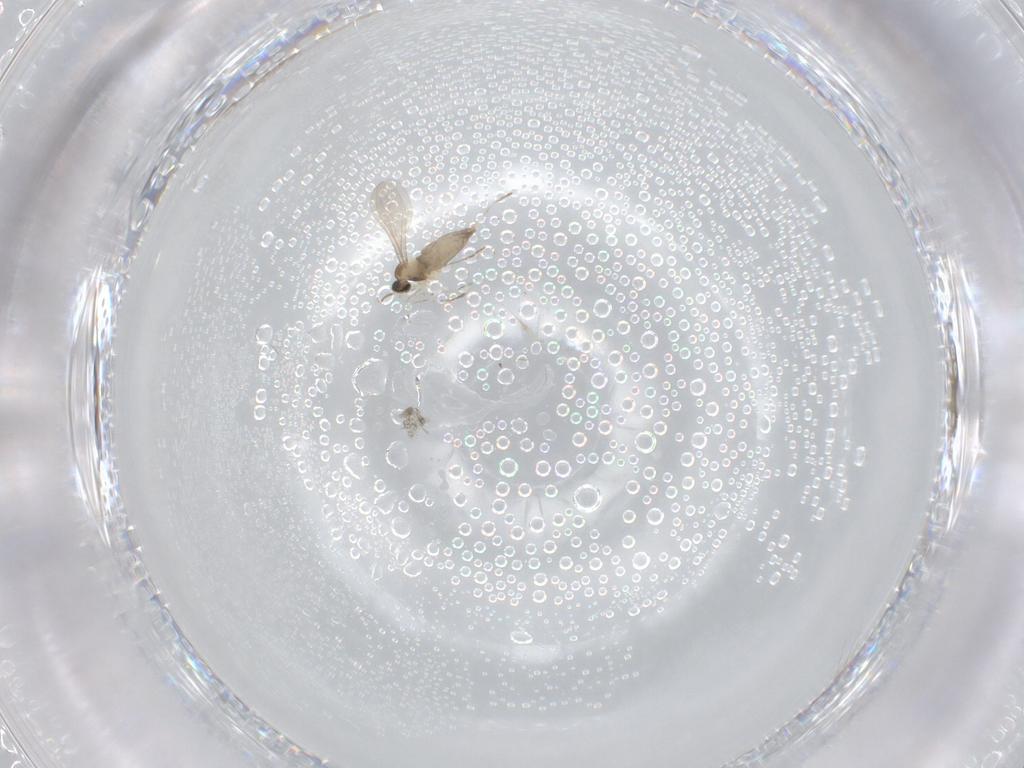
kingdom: Animalia
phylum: Arthropoda
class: Insecta
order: Diptera
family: Cecidomyiidae
